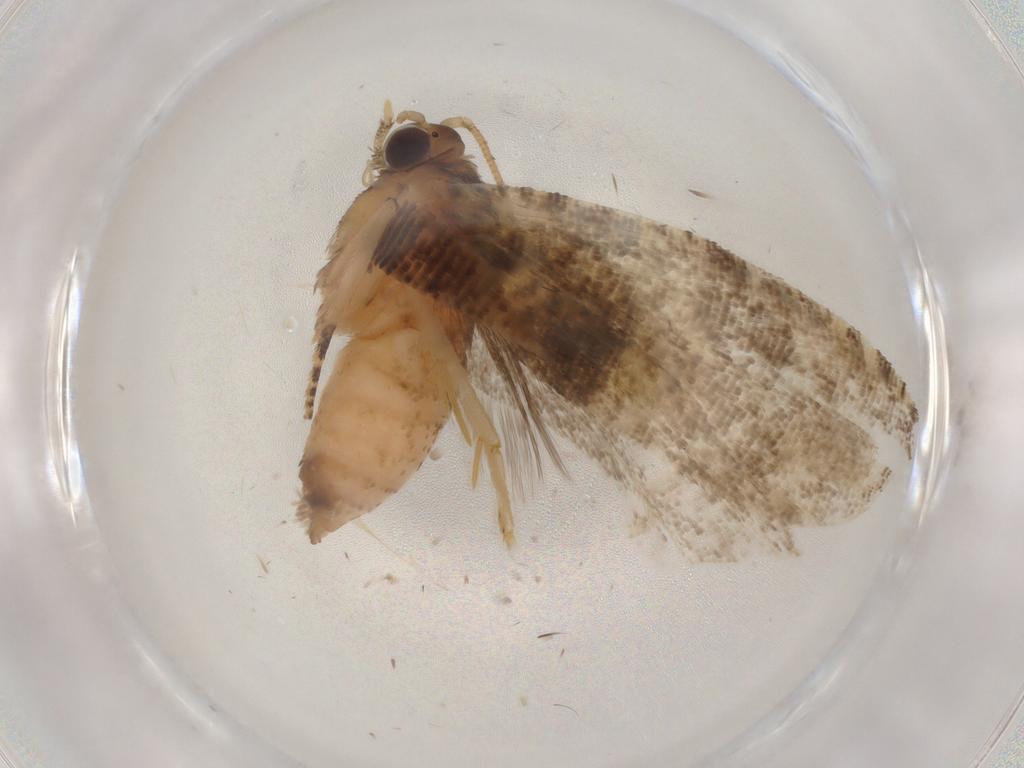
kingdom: Animalia
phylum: Arthropoda
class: Insecta
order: Lepidoptera
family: Tortricidae
